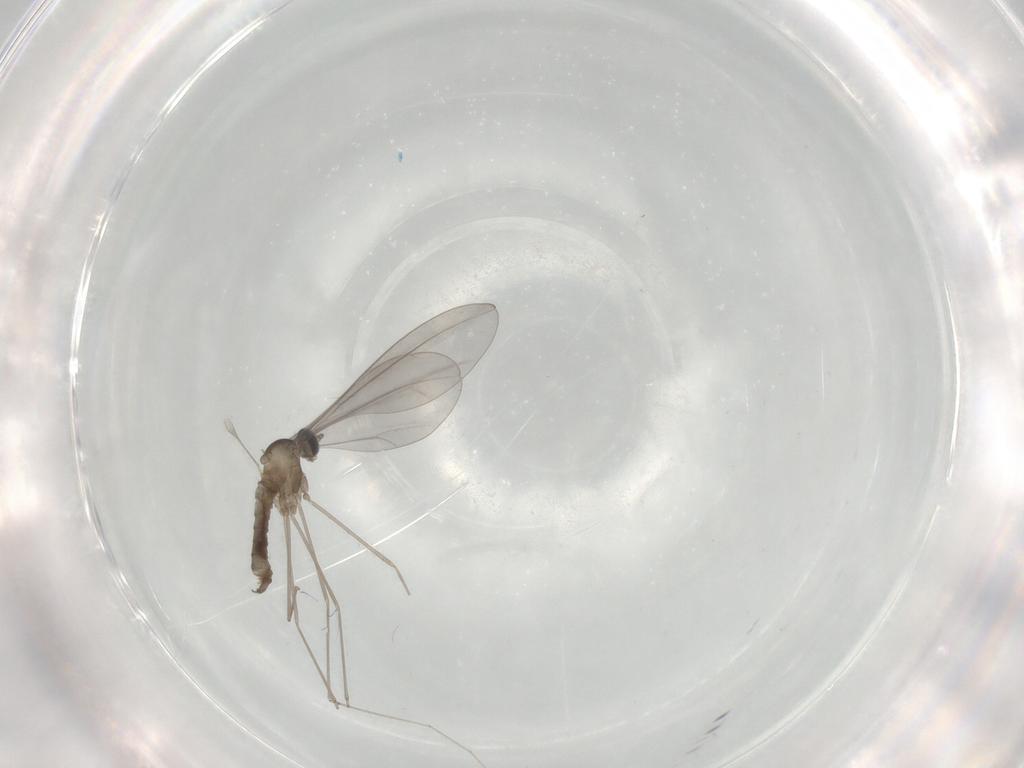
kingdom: Animalia
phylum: Arthropoda
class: Insecta
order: Diptera
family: Cecidomyiidae
